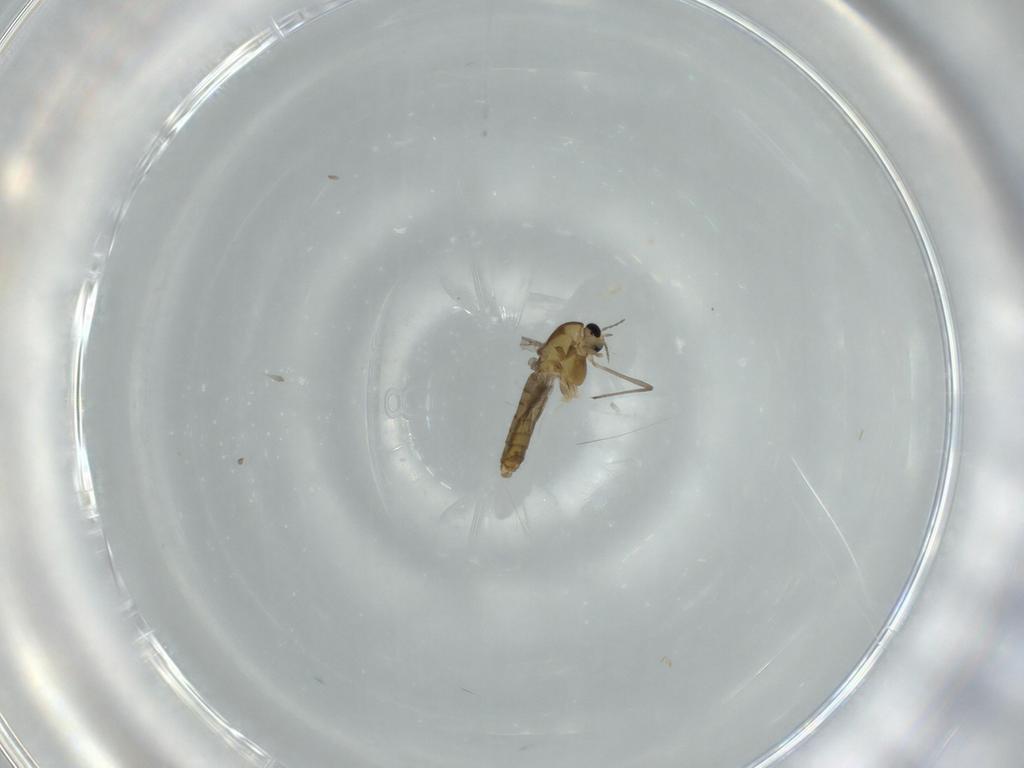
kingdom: Animalia
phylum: Arthropoda
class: Insecta
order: Diptera
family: Chironomidae
